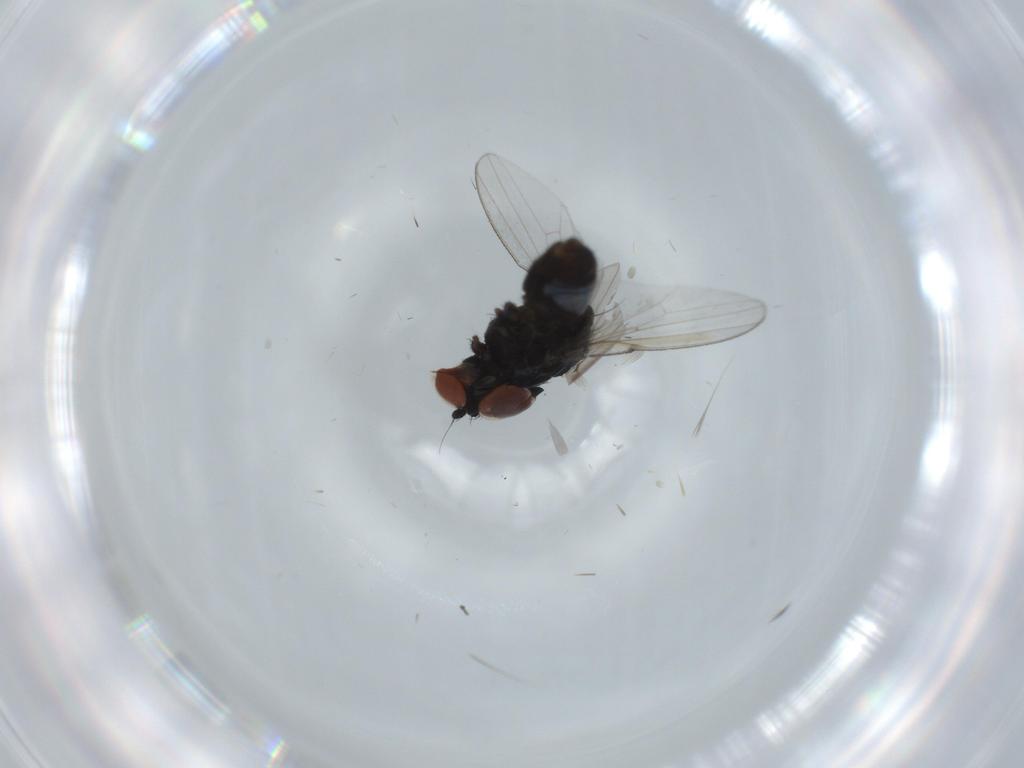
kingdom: Animalia
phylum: Arthropoda
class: Insecta
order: Diptera
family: Milichiidae
